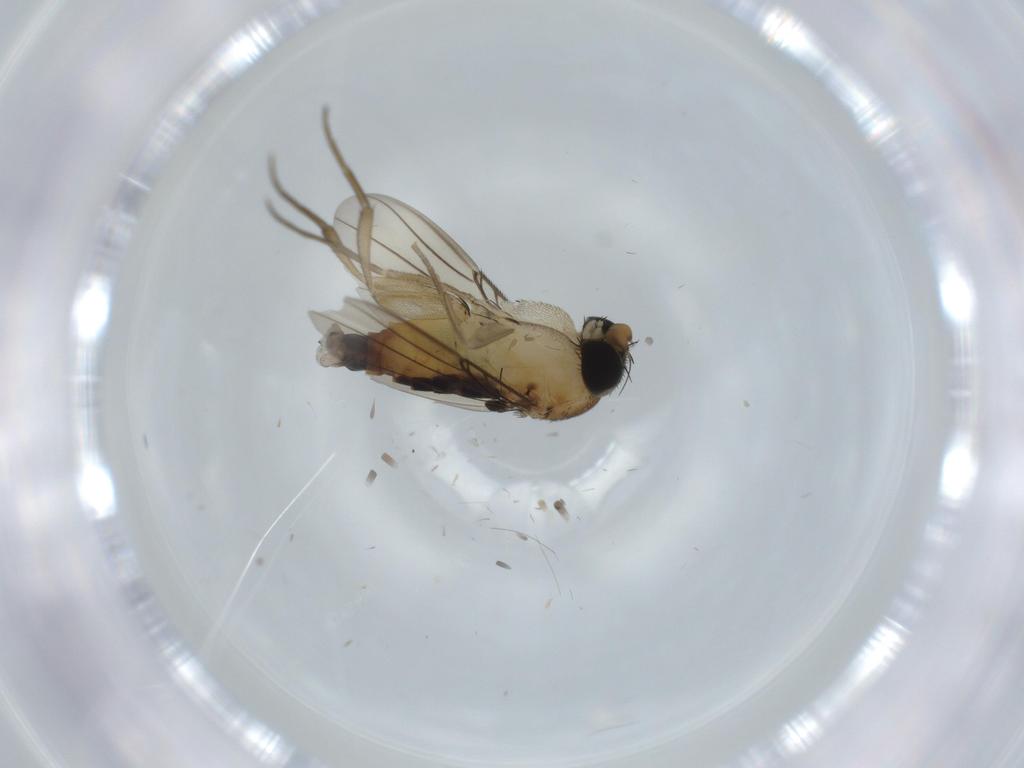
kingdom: Animalia
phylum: Arthropoda
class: Insecta
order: Diptera
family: Phoridae
